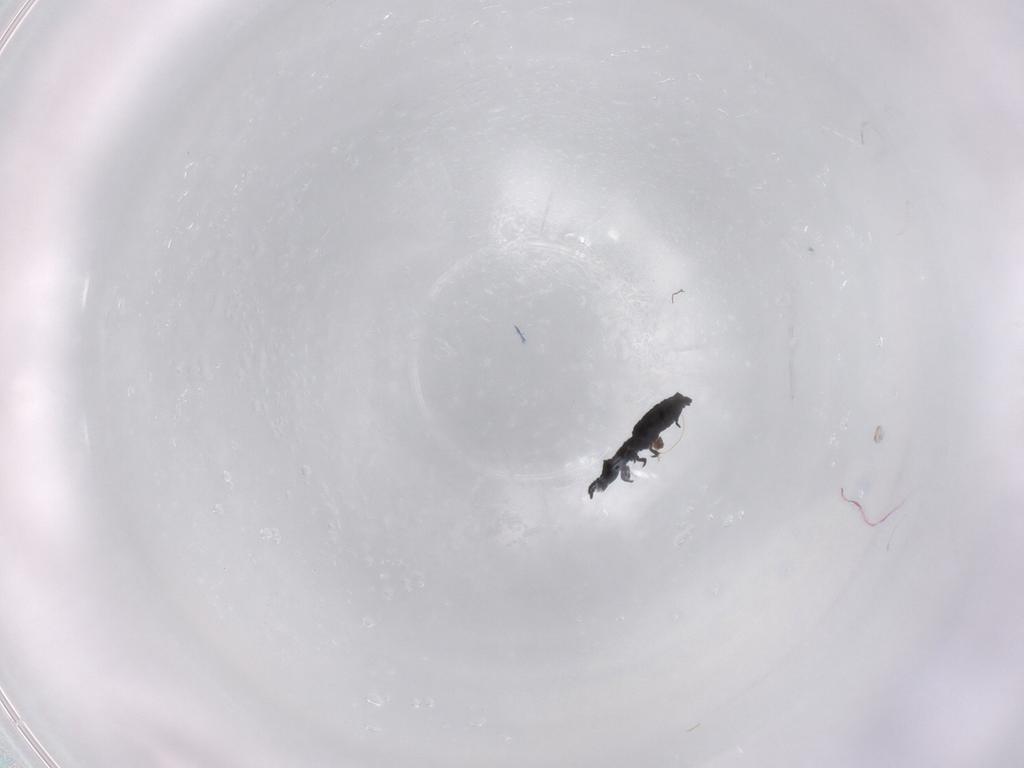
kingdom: Animalia
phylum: Arthropoda
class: Collembola
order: Poduromorpha
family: Hypogastruridae
